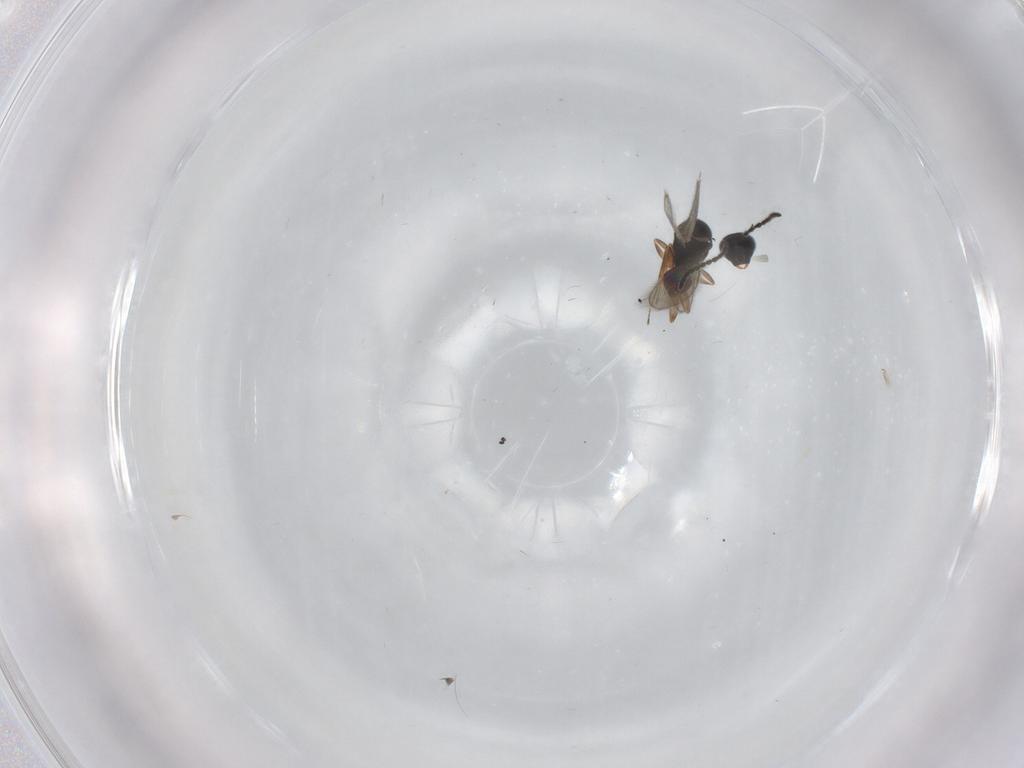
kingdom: Animalia
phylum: Arthropoda
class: Insecta
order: Hymenoptera
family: Scelionidae
